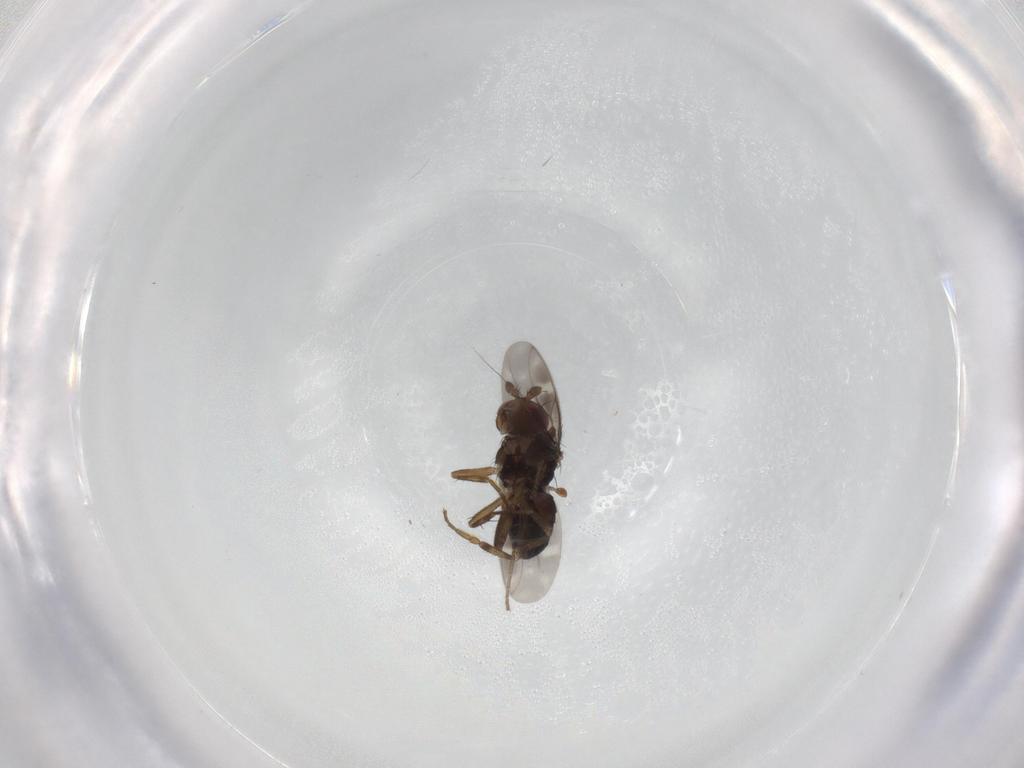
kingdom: Animalia
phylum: Arthropoda
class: Insecta
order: Diptera
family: Sphaeroceridae
